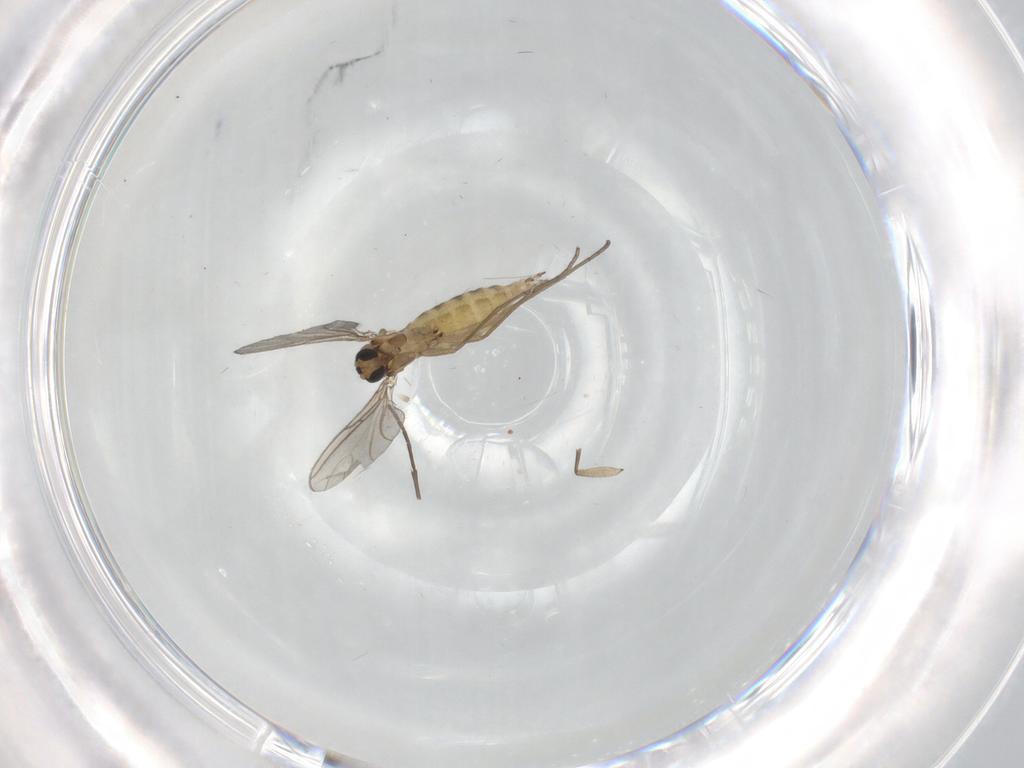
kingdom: Animalia
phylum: Arthropoda
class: Insecta
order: Diptera
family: Sciaridae
